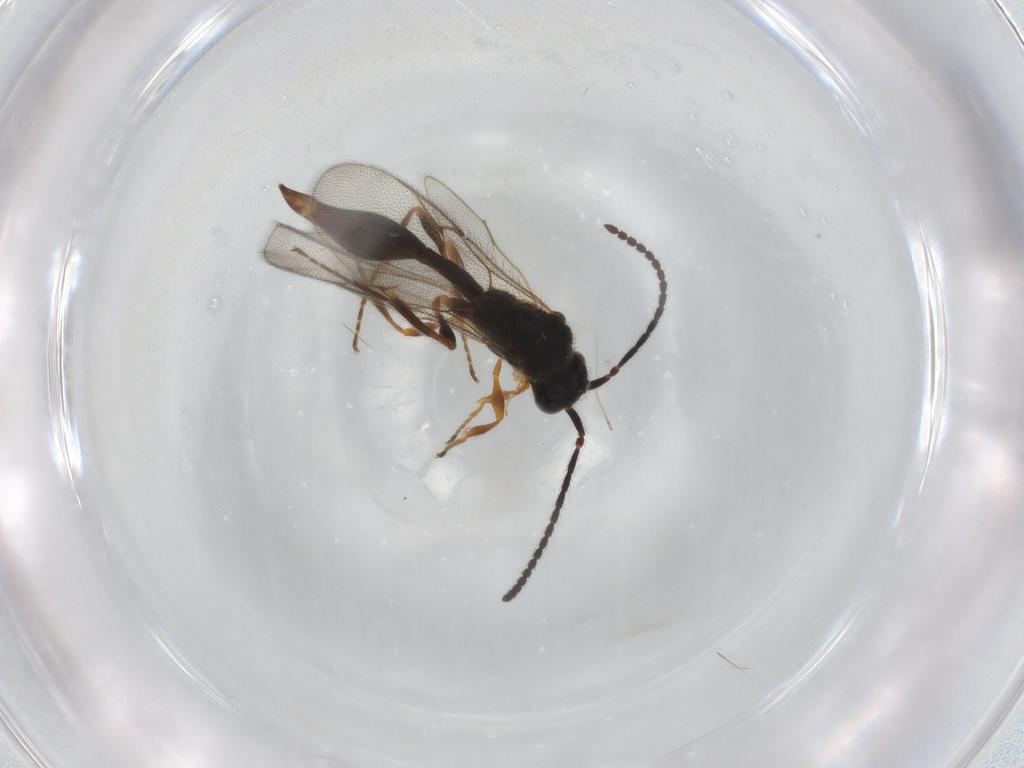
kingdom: Animalia
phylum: Arthropoda
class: Insecta
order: Hymenoptera
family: Diapriidae
